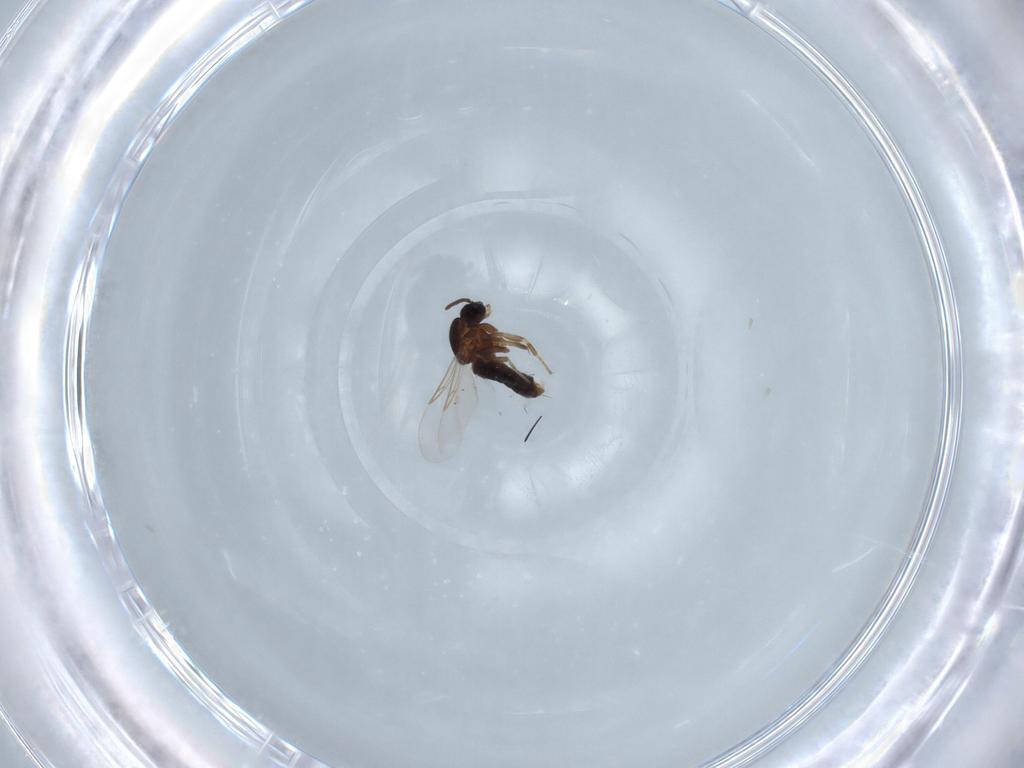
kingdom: Animalia
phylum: Arthropoda
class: Insecta
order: Diptera
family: Scatopsidae
